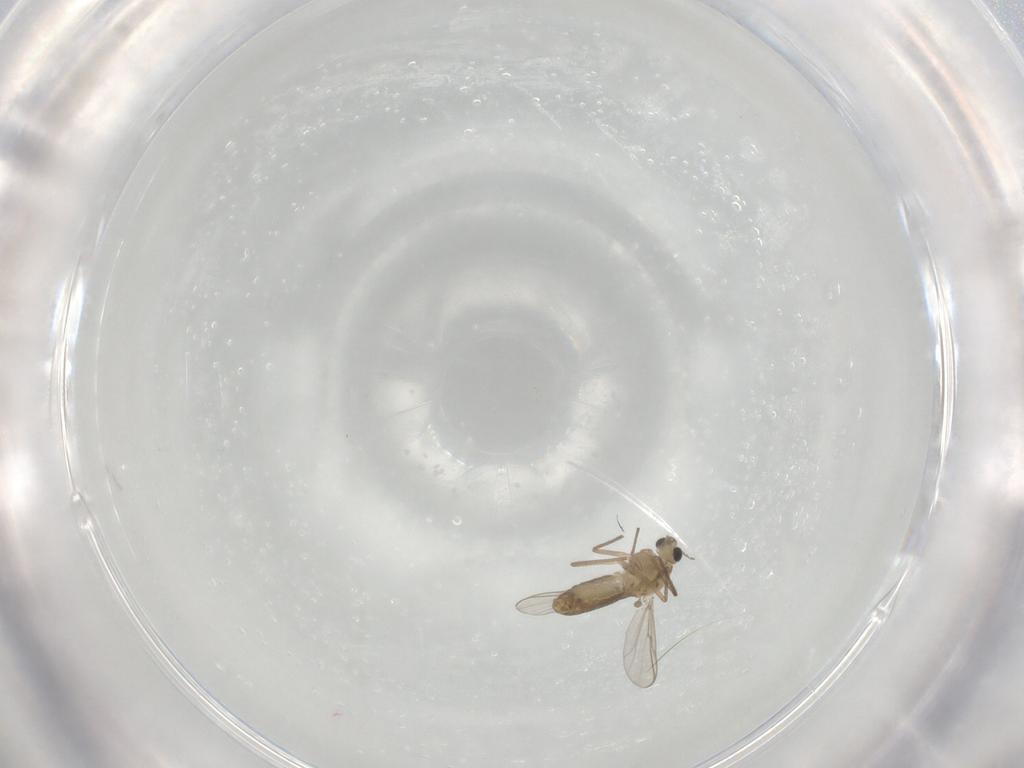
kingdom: Animalia
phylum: Arthropoda
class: Insecta
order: Diptera
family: Chironomidae
